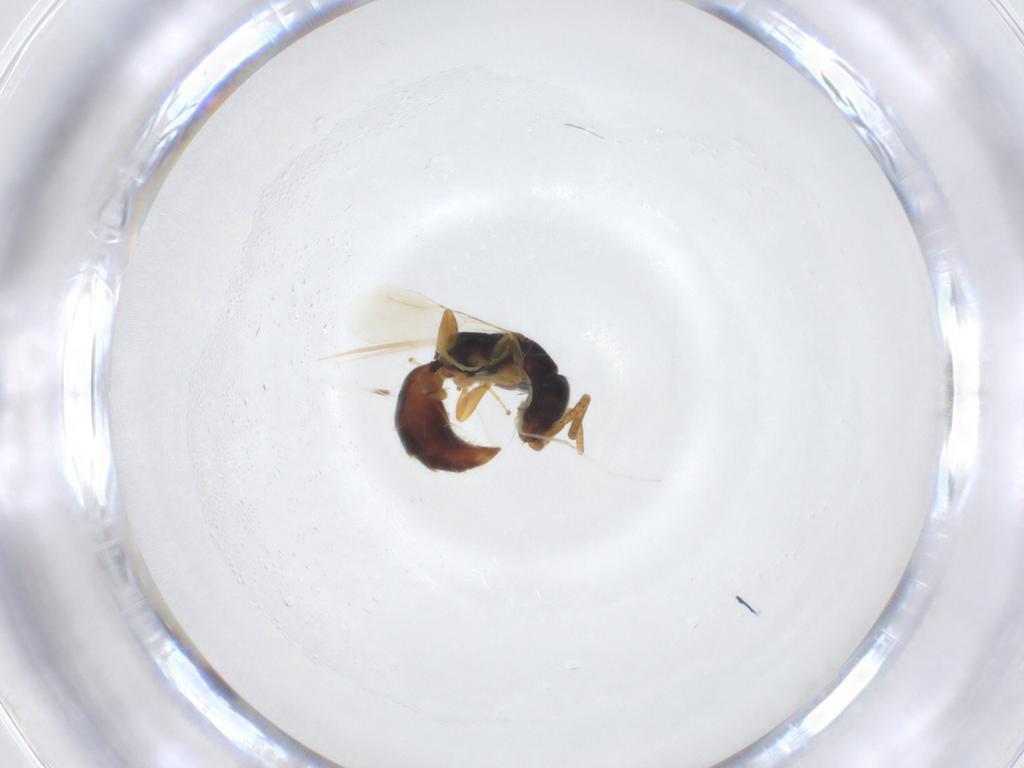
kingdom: Animalia
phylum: Arthropoda
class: Insecta
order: Hymenoptera
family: Bethylidae
